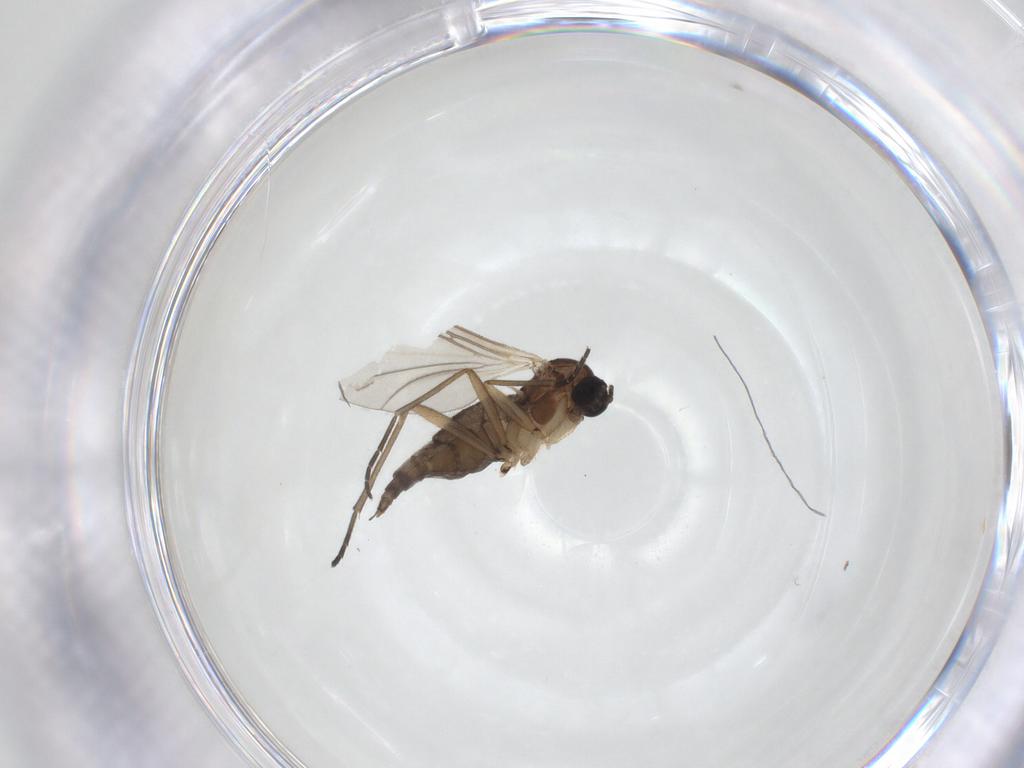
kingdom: Animalia
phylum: Arthropoda
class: Insecta
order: Diptera
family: Sciaridae
